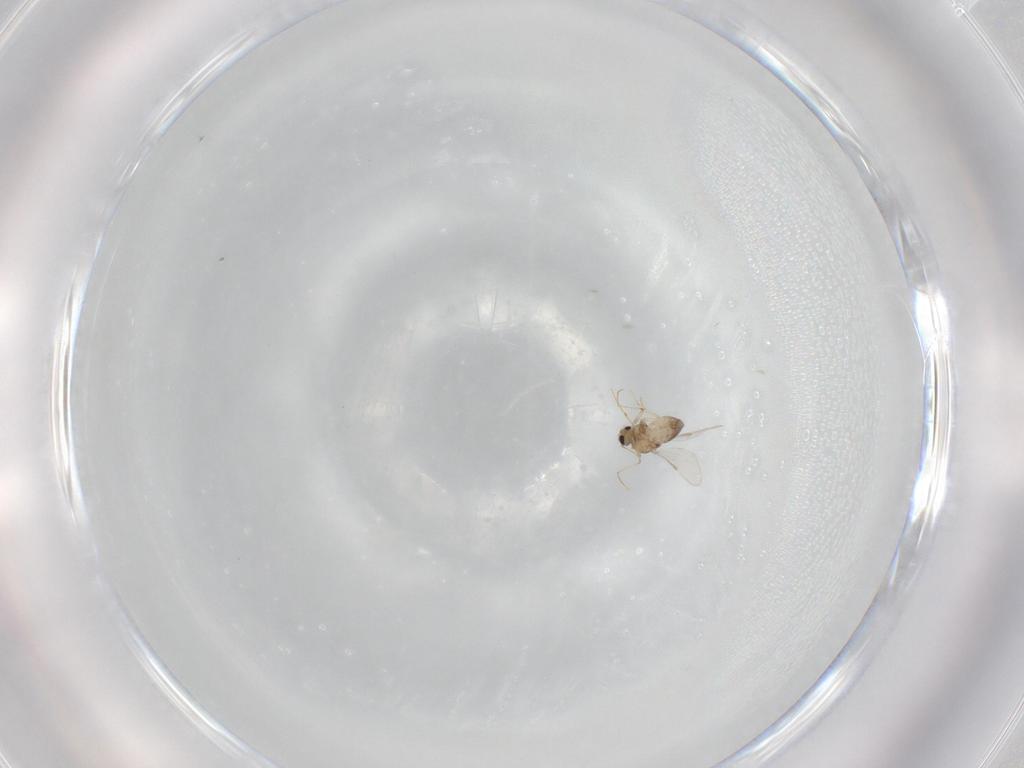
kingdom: Animalia
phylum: Arthropoda
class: Insecta
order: Diptera
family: Chironomidae
